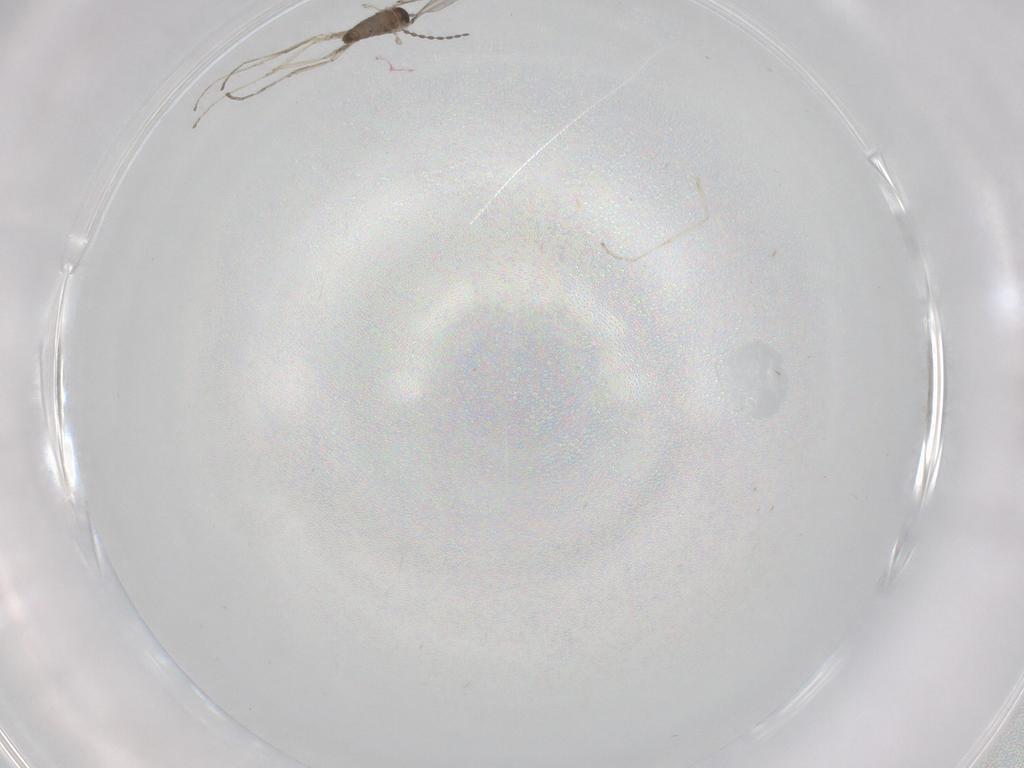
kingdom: Animalia
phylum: Arthropoda
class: Insecta
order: Diptera
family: Cecidomyiidae
